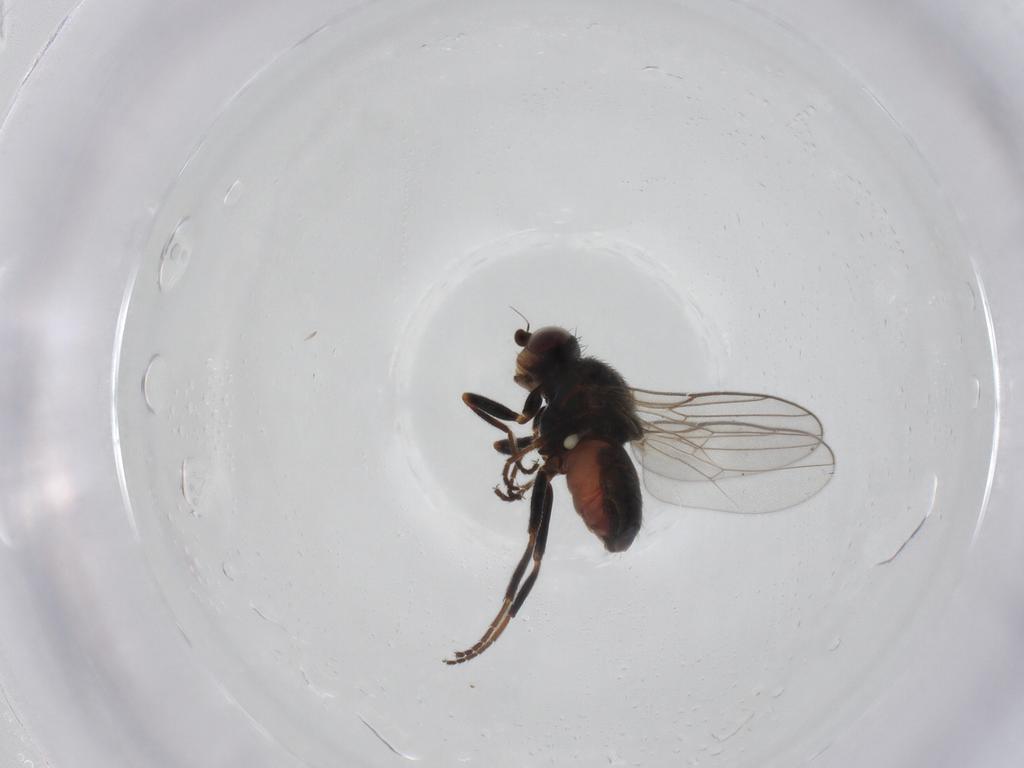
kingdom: Animalia
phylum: Arthropoda
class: Insecta
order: Diptera
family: Chloropidae
